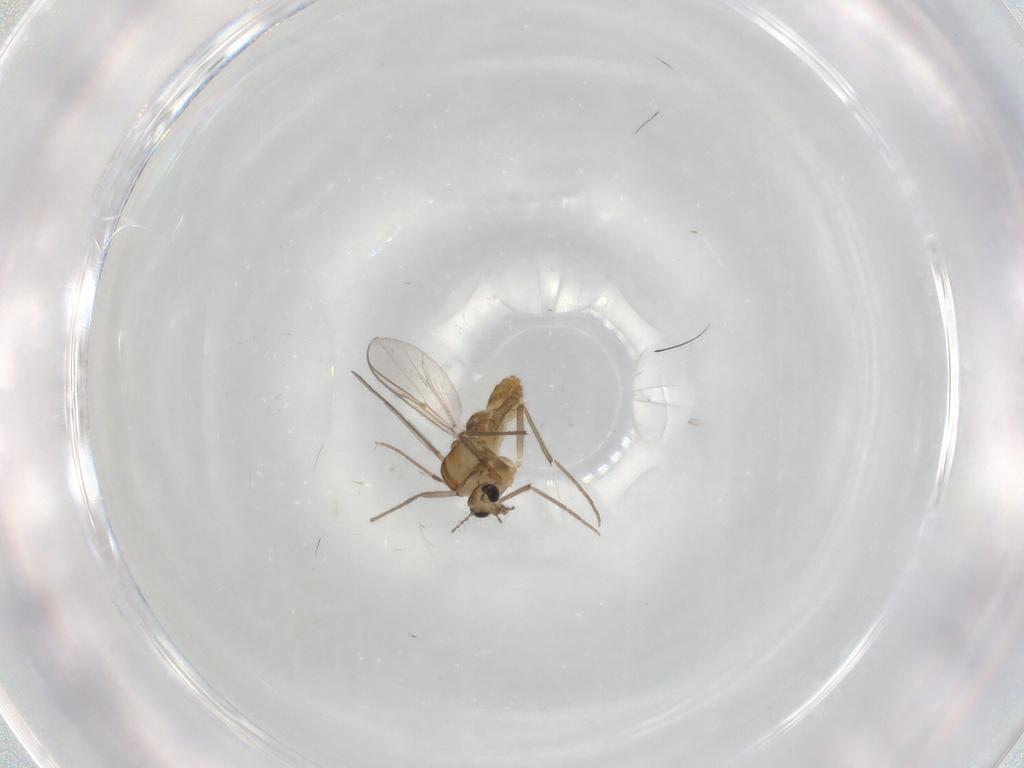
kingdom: Animalia
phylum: Arthropoda
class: Insecta
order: Diptera
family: Chironomidae
